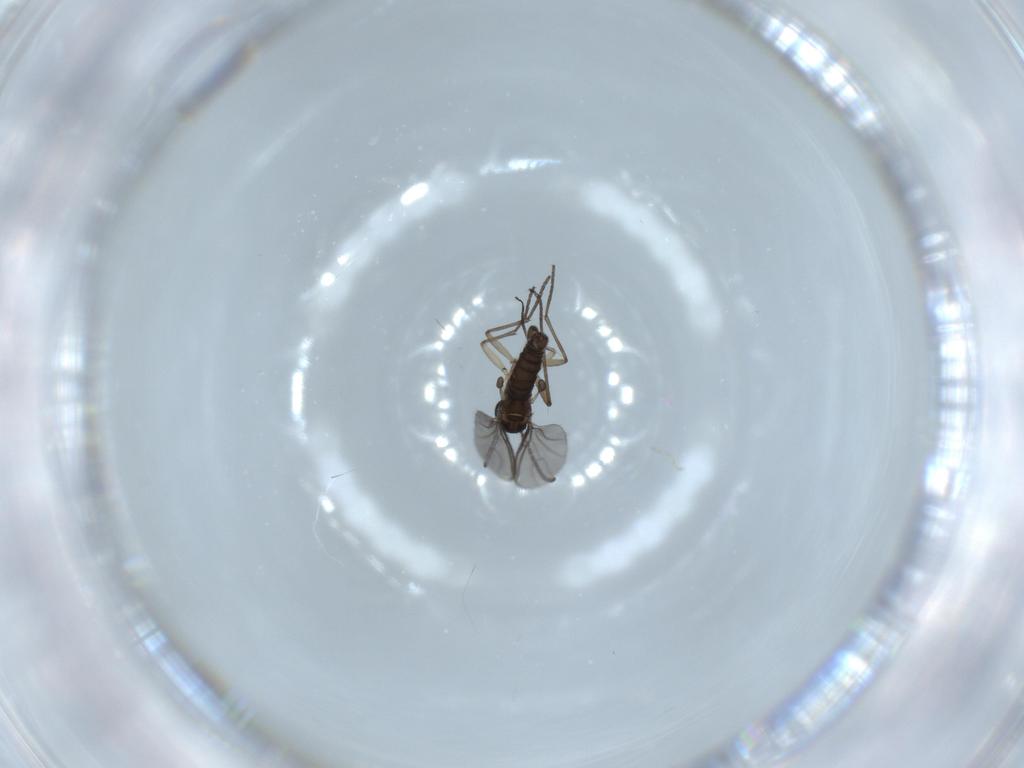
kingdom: Animalia
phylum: Arthropoda
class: Insecta
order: Diptera
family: Sciaridae
